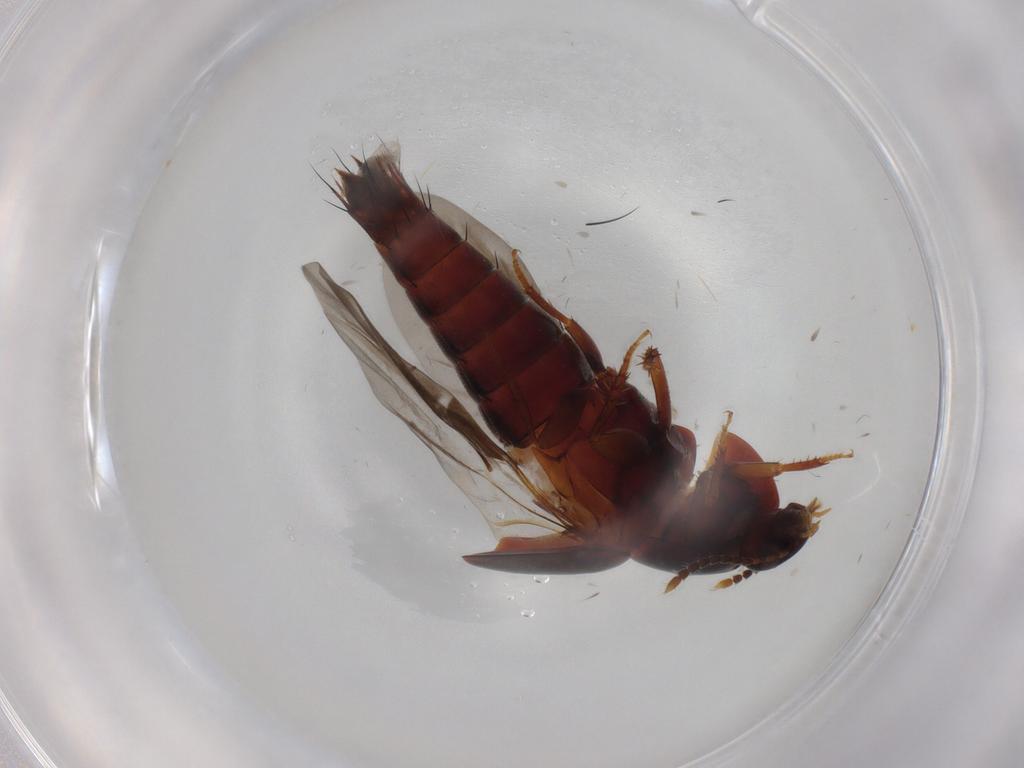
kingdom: Animalia
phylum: Arthropoda
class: Insecta
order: Coleoptera
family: Staphylinidae
